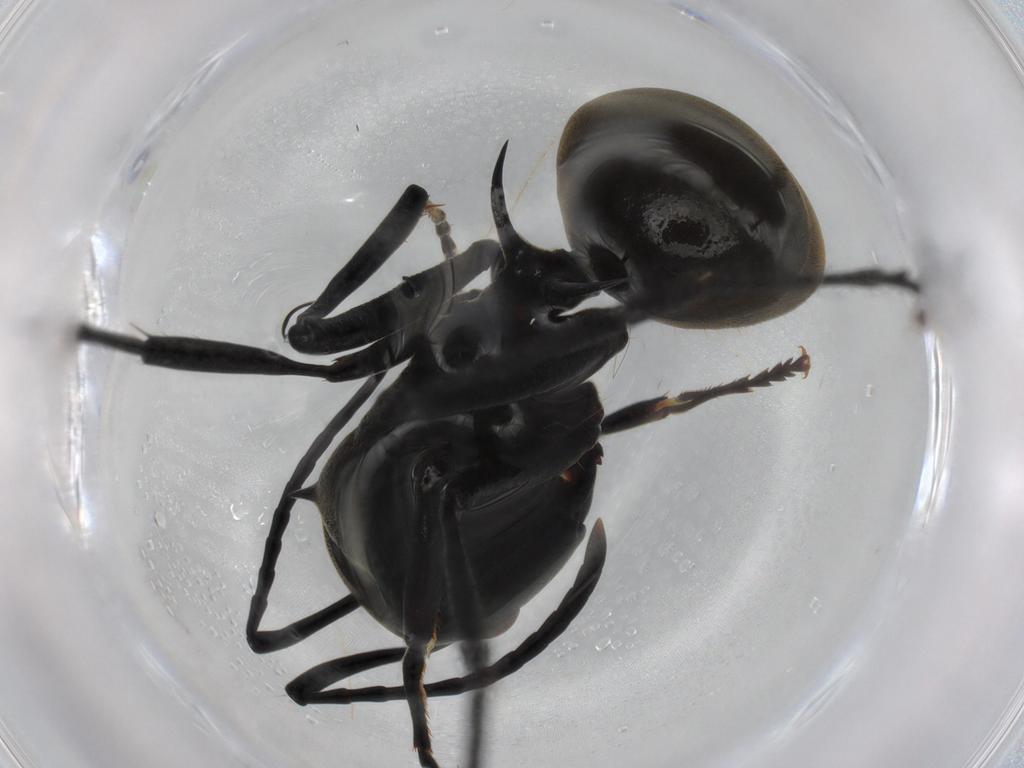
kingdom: Animalia
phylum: Arthropoda
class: Insecta
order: Hymenoptera
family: Formicidae
